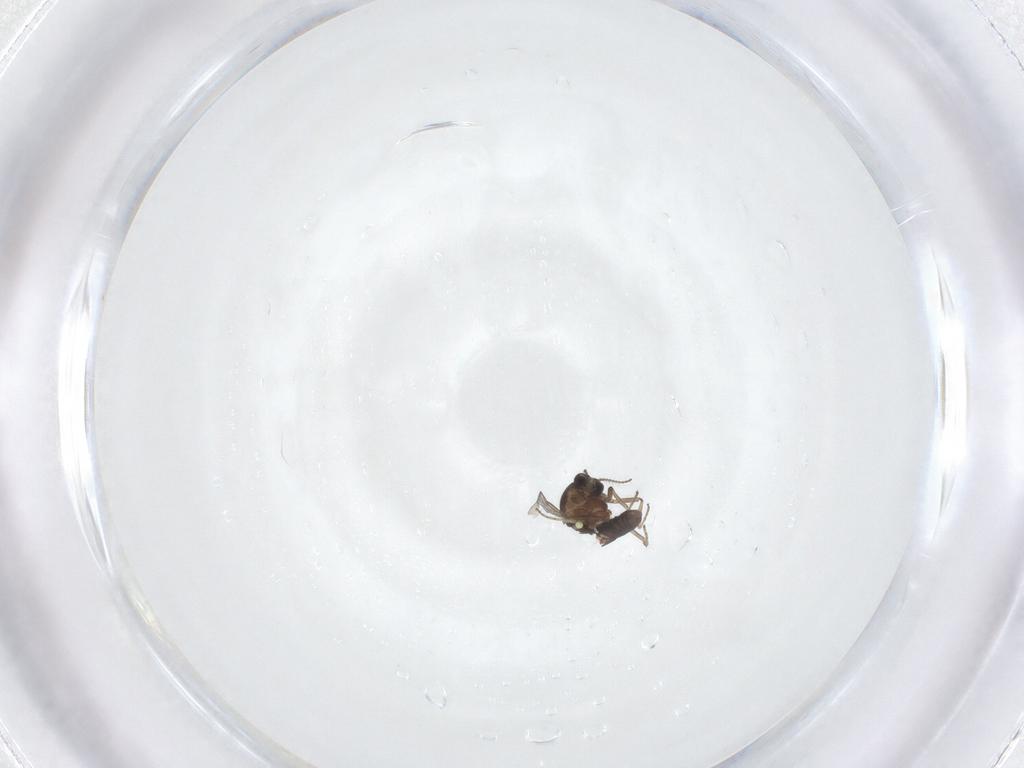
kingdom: Animalia
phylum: Arthropoda
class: Insecta
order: Diptera
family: Ceratopogonidae
